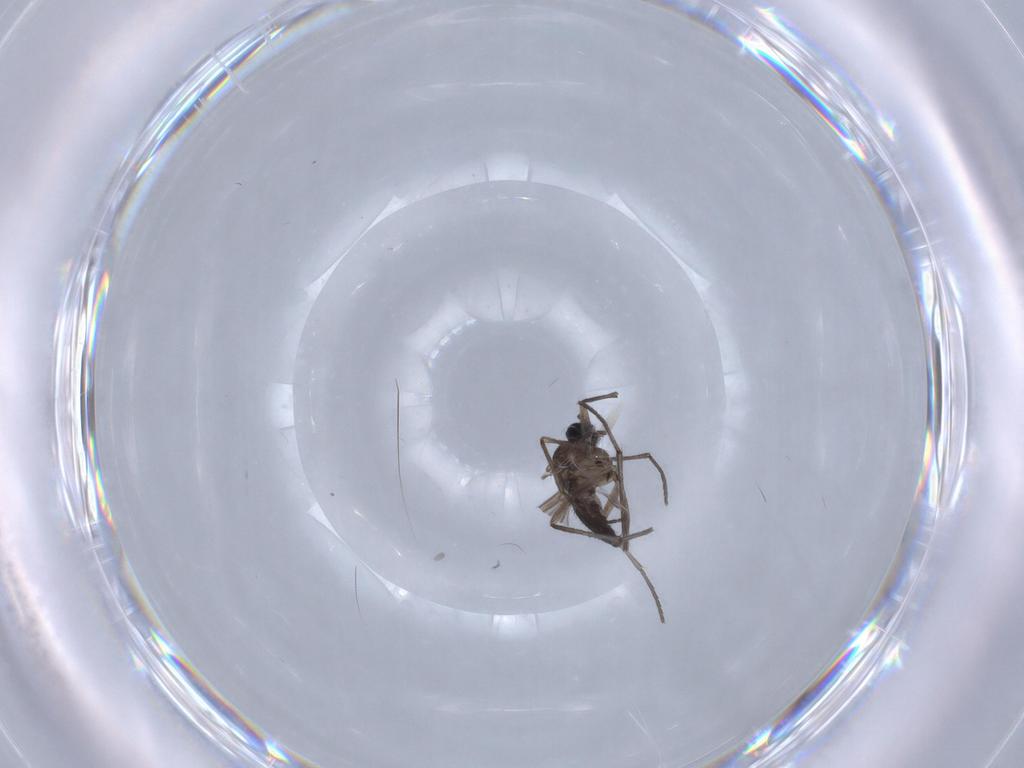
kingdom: Animalia
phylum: Arthropoda
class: Insecta
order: Diptera
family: Sciaridae
